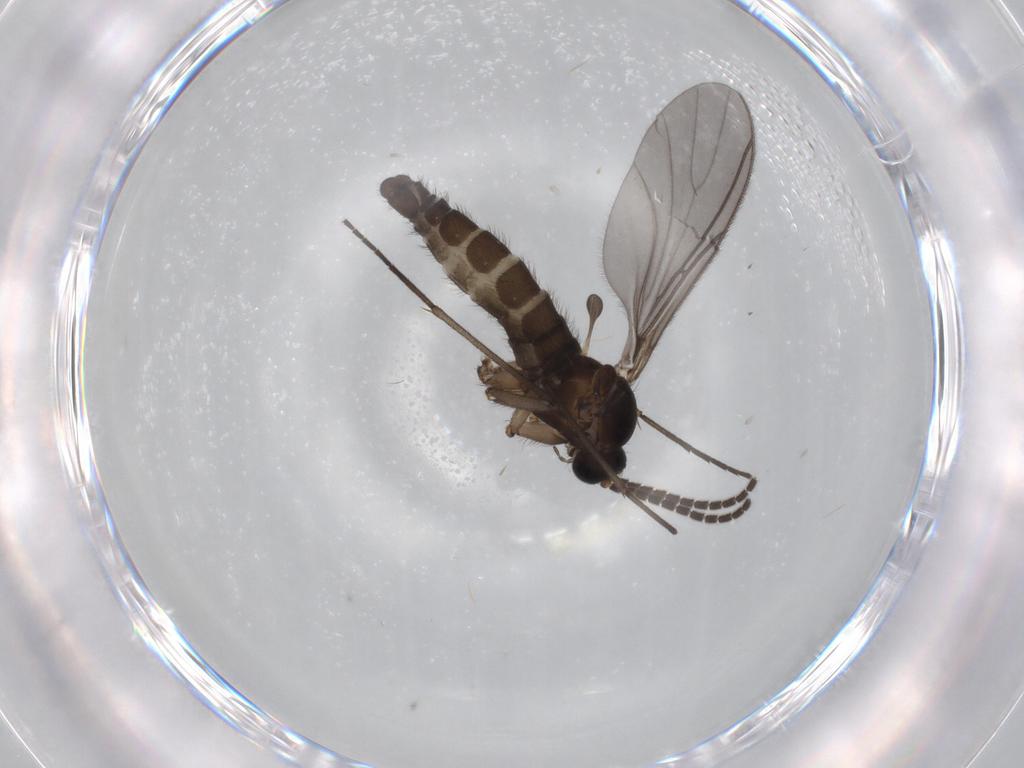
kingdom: Animalia
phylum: Arthropoda
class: Insecta
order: Diptera
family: Sciaridae
